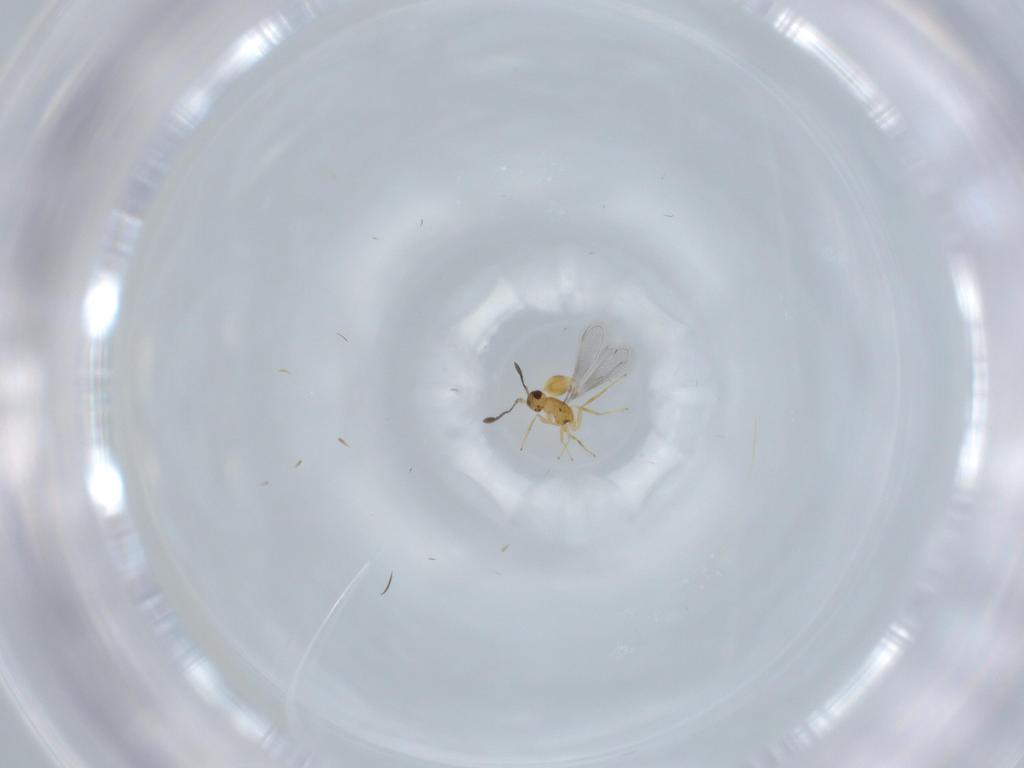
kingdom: Animalia
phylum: Arthropoda
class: Insecta
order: Hymenoptera
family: Mymaridae
